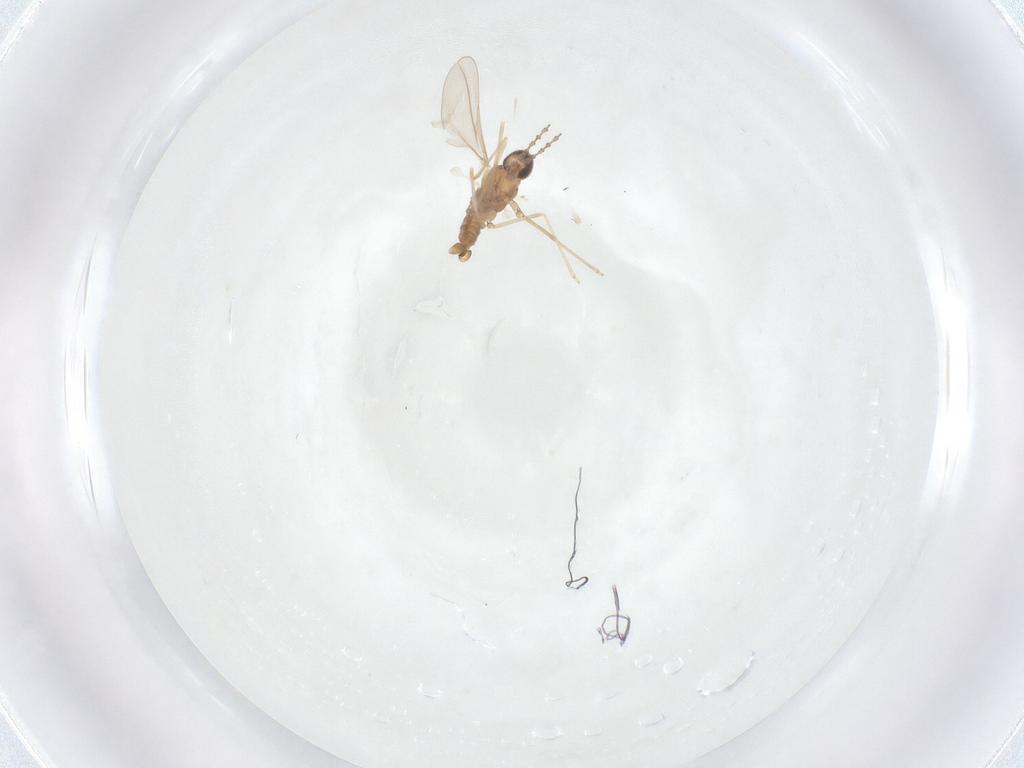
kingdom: Animalia
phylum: Arthropoda
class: Insecta
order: Diptera
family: Cecidomyiidae
